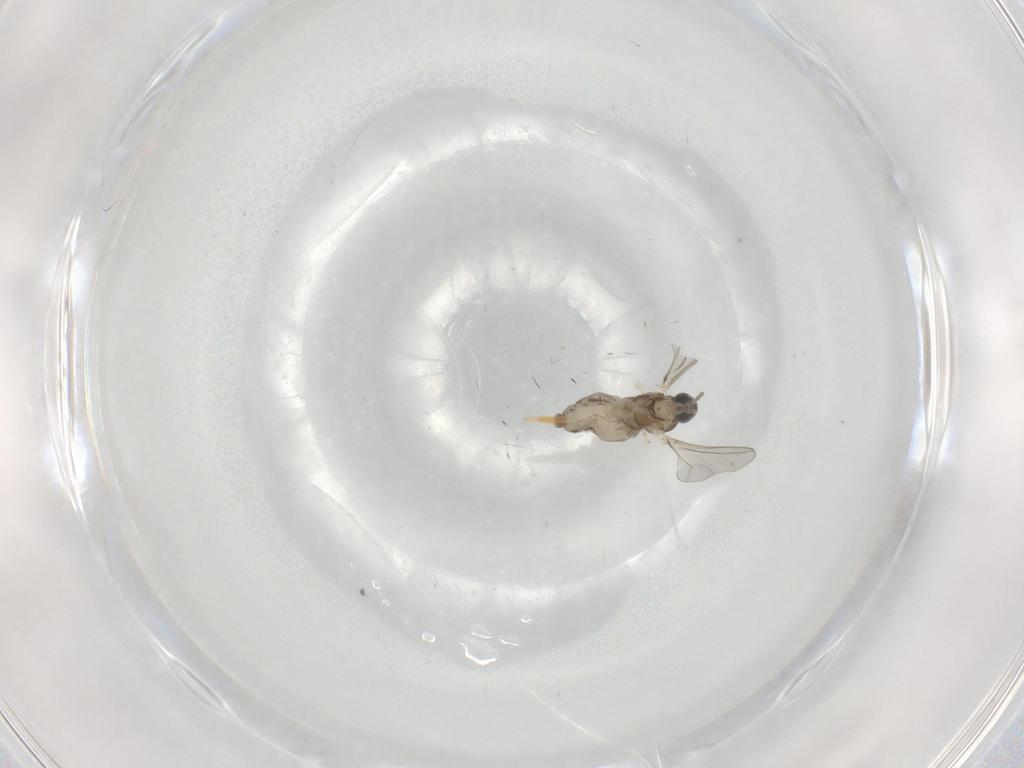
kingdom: Animalia
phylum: Arthropoda
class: Insecta
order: Diptera
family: Cecidomyiidae
